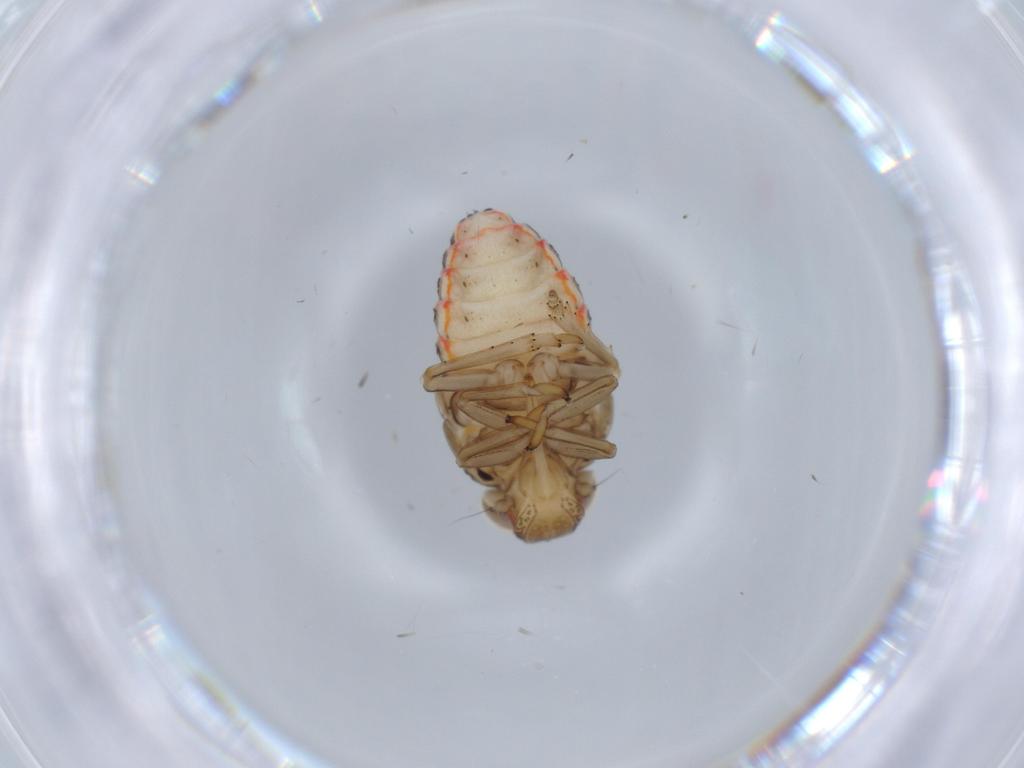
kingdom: Animalia
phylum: Arthropoda
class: Insecta
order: Hemiptera
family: Issidae
